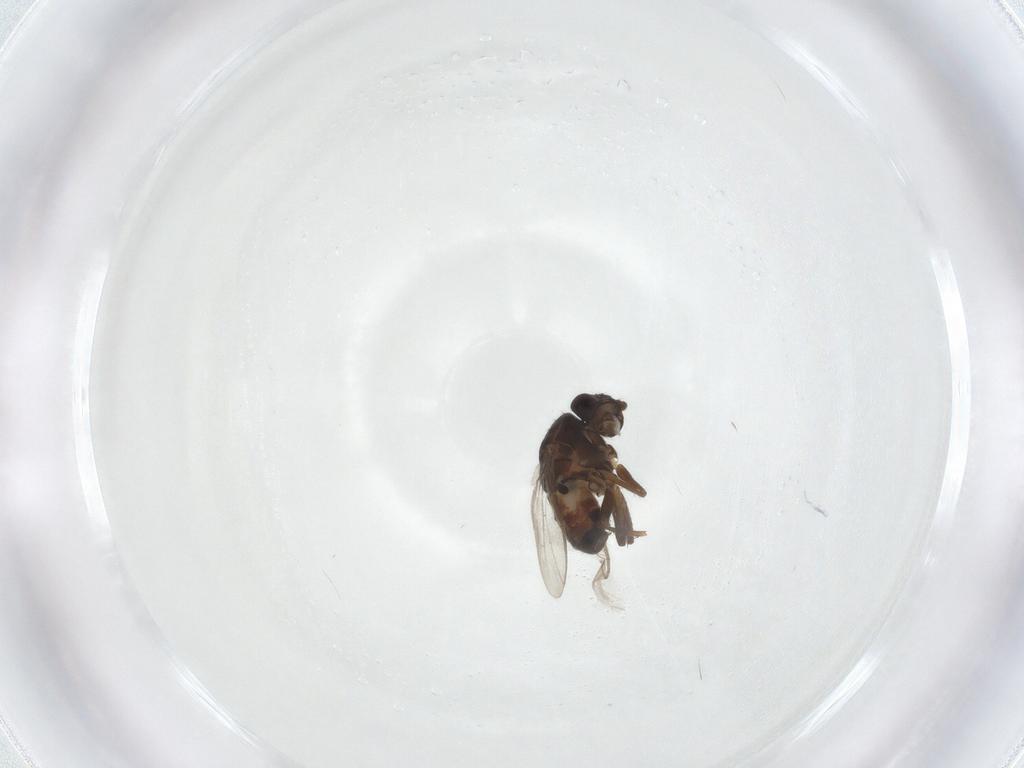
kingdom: Animalia
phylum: Arthropoda
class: Insecta
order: Diptera
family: Sphaeroceridae
